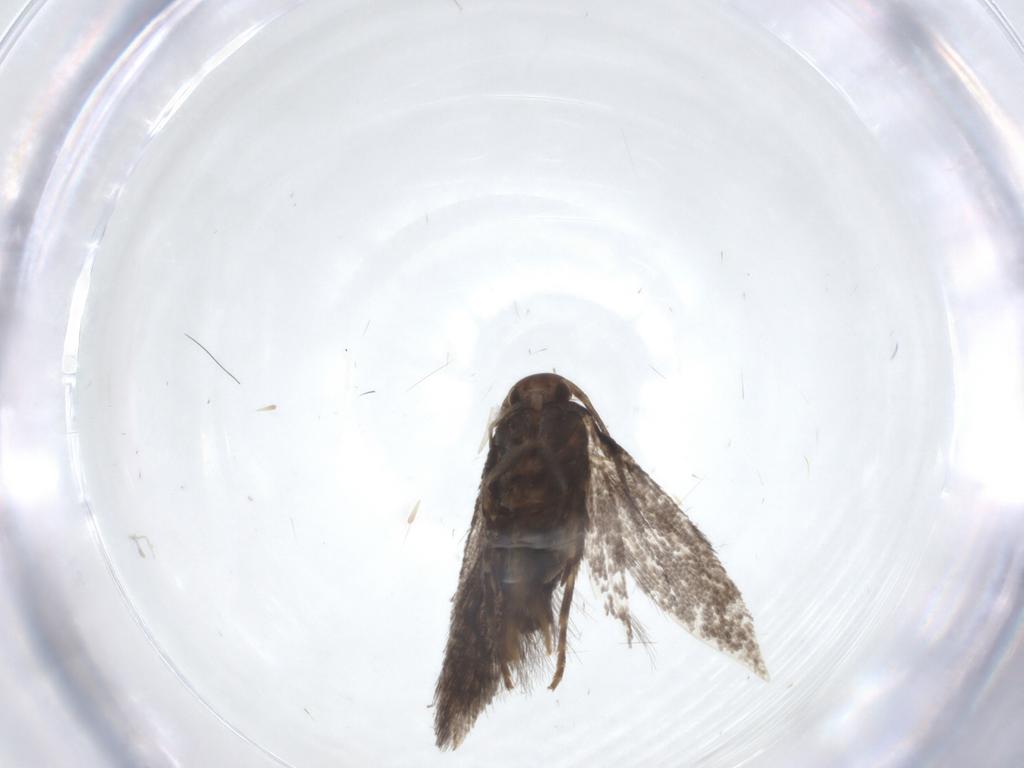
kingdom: Animalia
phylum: Arthropoda
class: Insecta
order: Lepidoptera
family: Elachistidae
